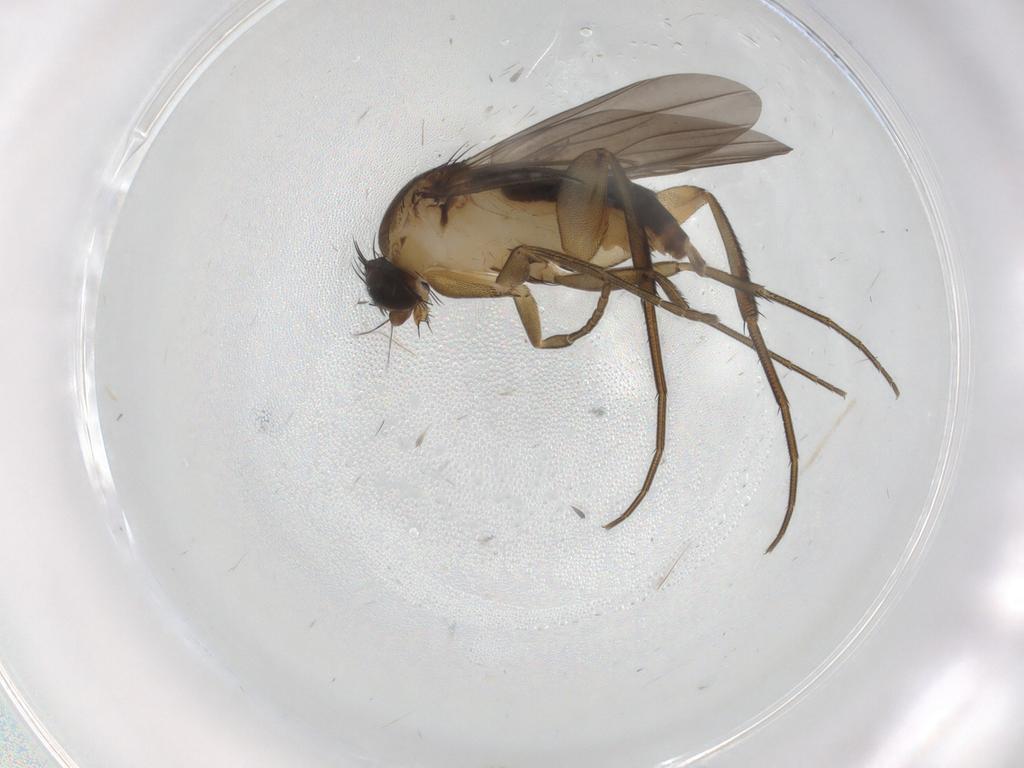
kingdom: Animalia
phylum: Arthropoda
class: Insecta
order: Diptera
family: Phoridae
